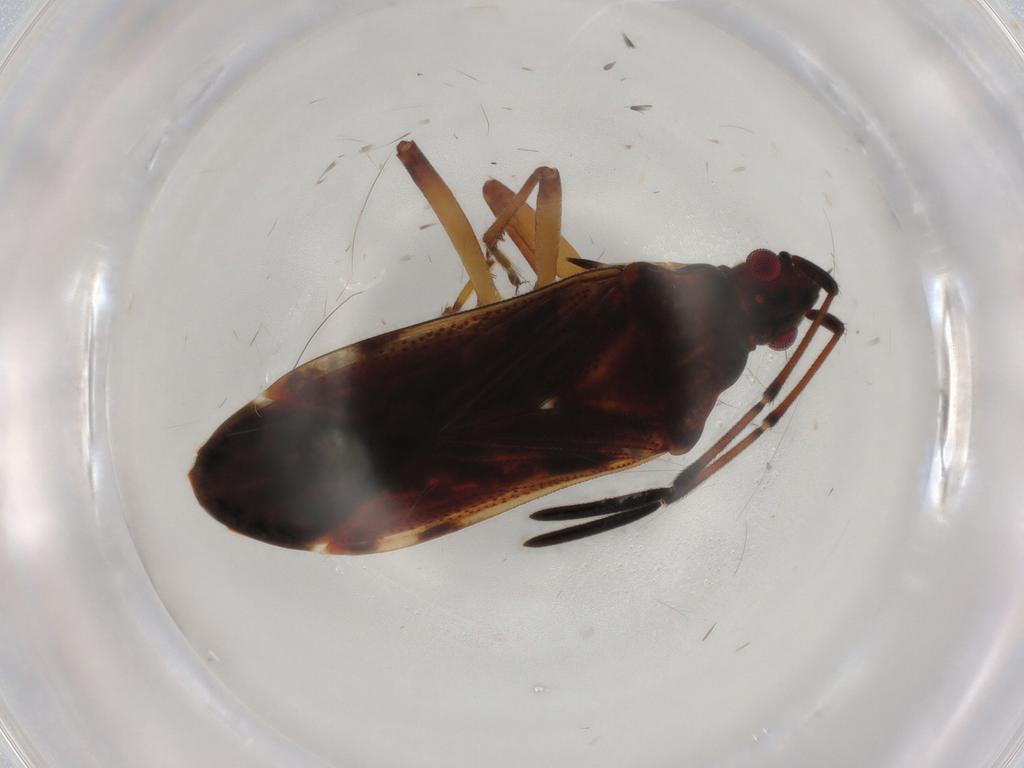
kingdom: Animalia
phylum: Arthropoda
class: Insecta
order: Hemiptera
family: Rhyparochromidae
